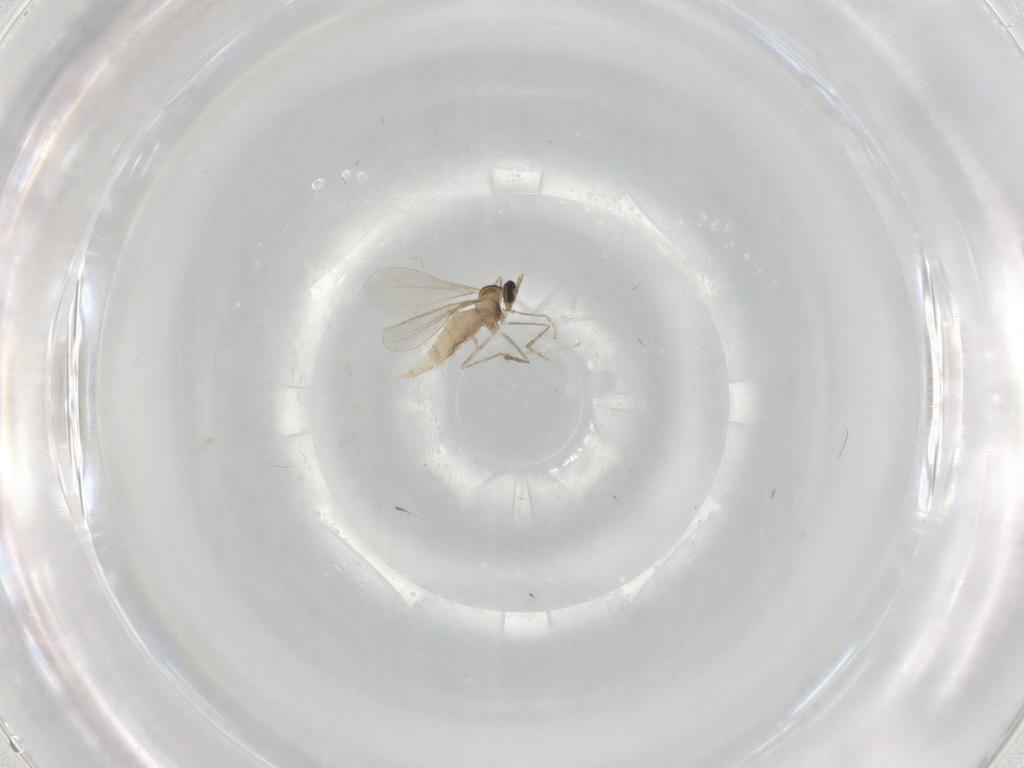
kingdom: Animalia
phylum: Arthropoda
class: Insecta
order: Diptera
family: Cecidomyiidae
